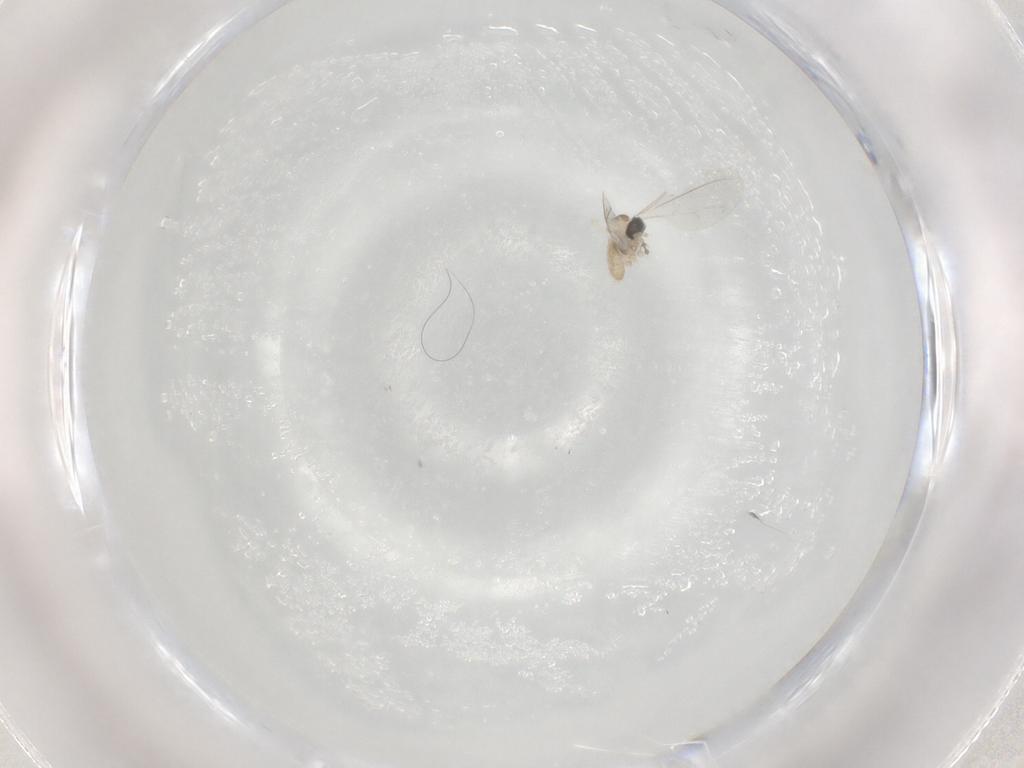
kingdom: Animalia
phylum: Arthropoda
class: Insecta
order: Diptera
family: Cecidomyiidae
